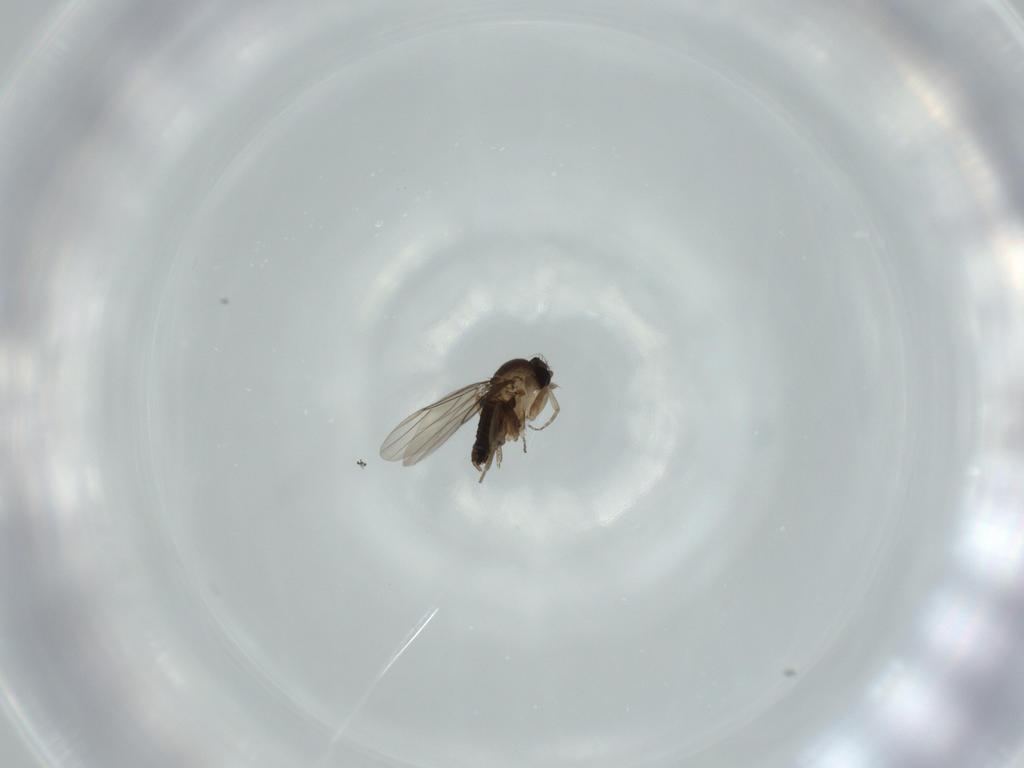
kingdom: Animalia
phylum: Arthropoda
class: Insecta
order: Diptera
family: Phoridae
